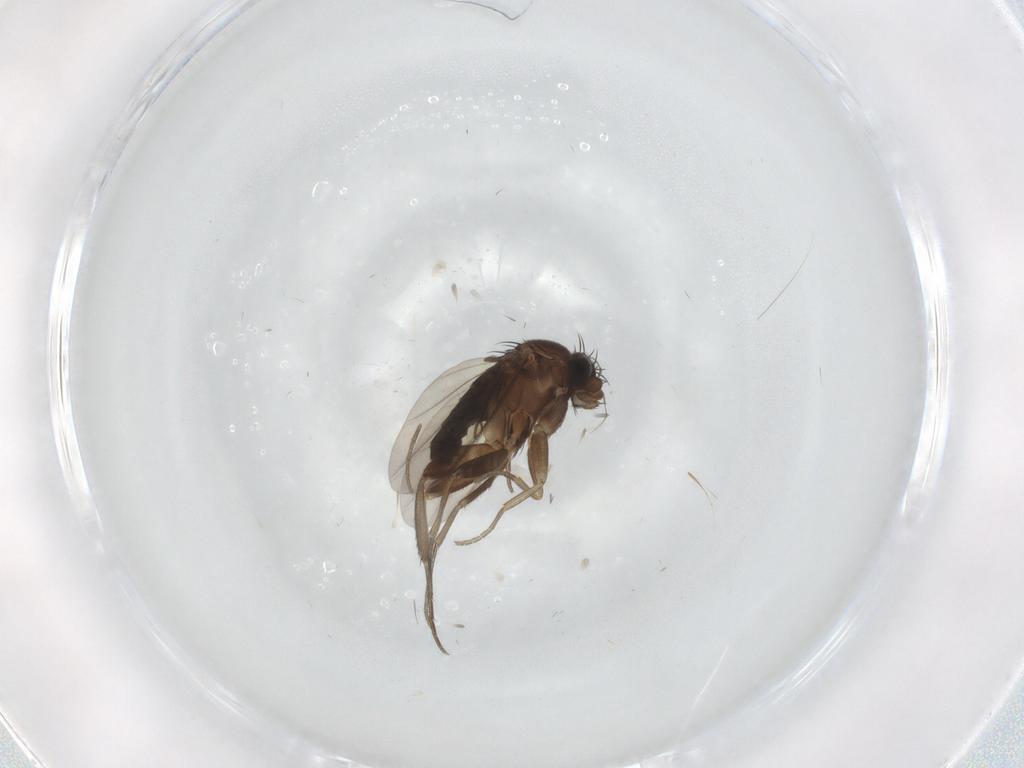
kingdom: Animalia
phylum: Arthropoda
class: Insecta
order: Diptera
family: Phoridae
